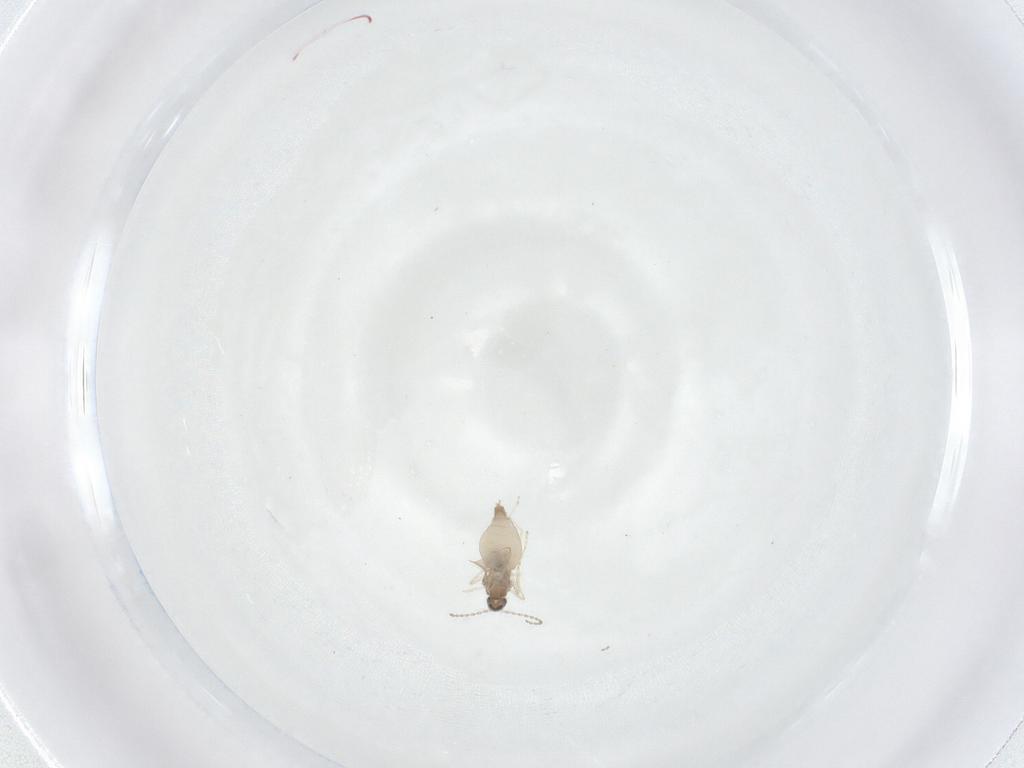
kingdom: Animalia
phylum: Arthropoda
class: Insecta
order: Diptera
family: Cecidomyiidae
